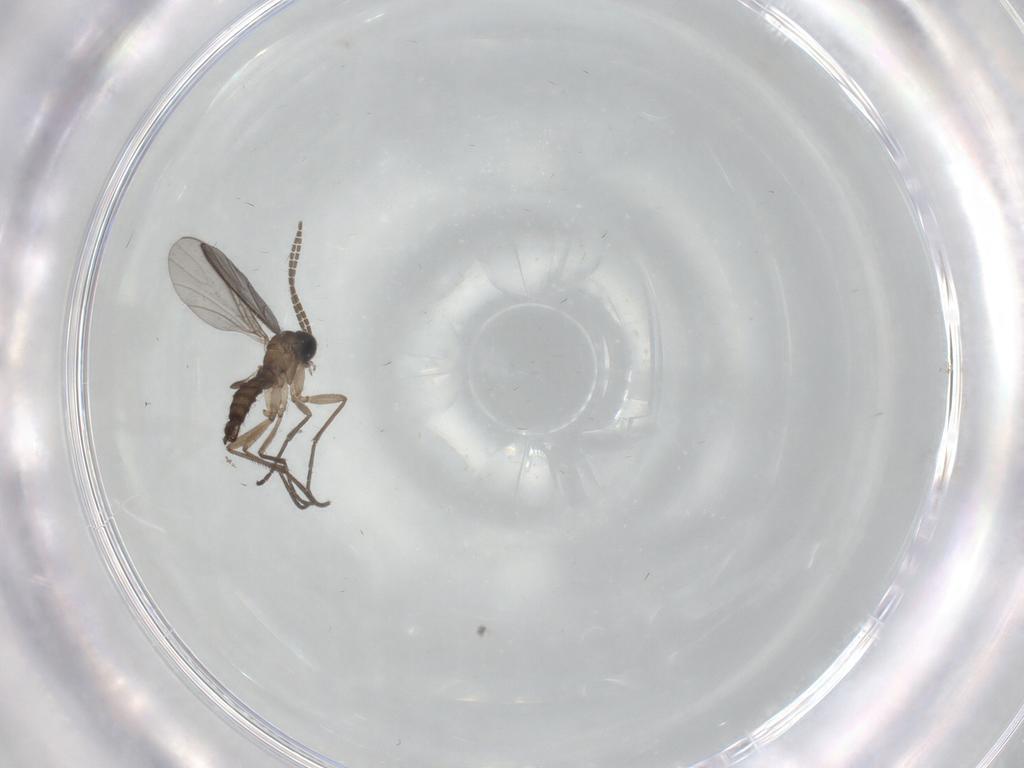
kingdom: Animalia
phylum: Arthropoda
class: Insecta
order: Diptera
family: Sciaridae
